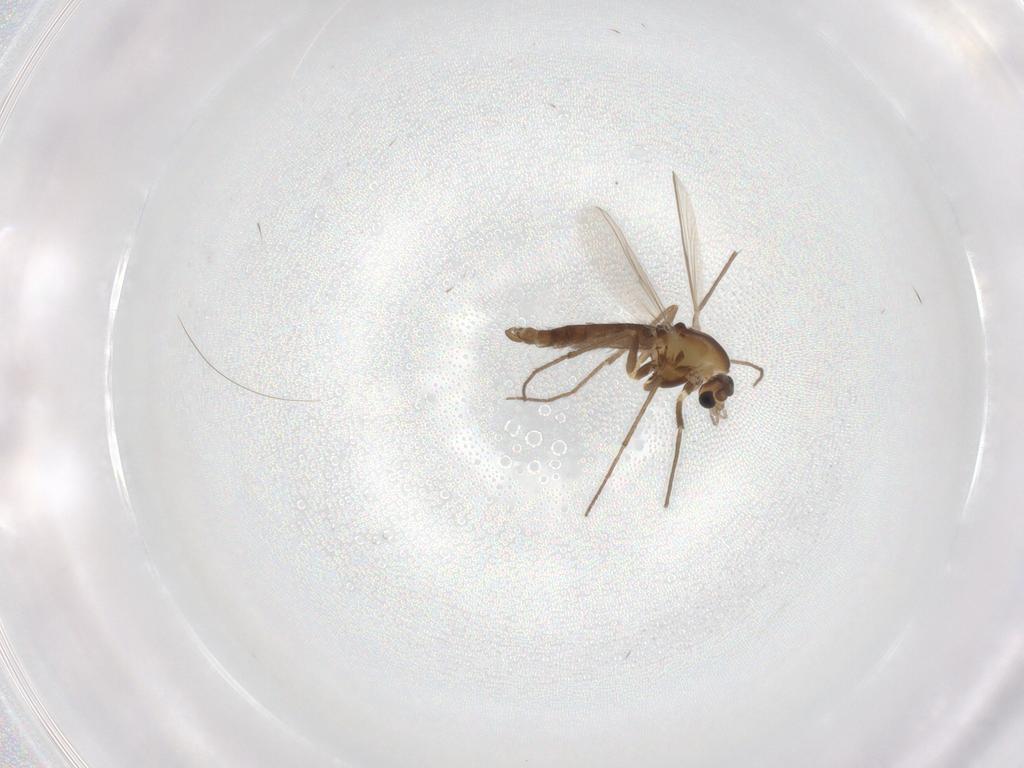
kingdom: Animalia
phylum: Arthropoda
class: Insecta
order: Diptera
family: Chironomidae
